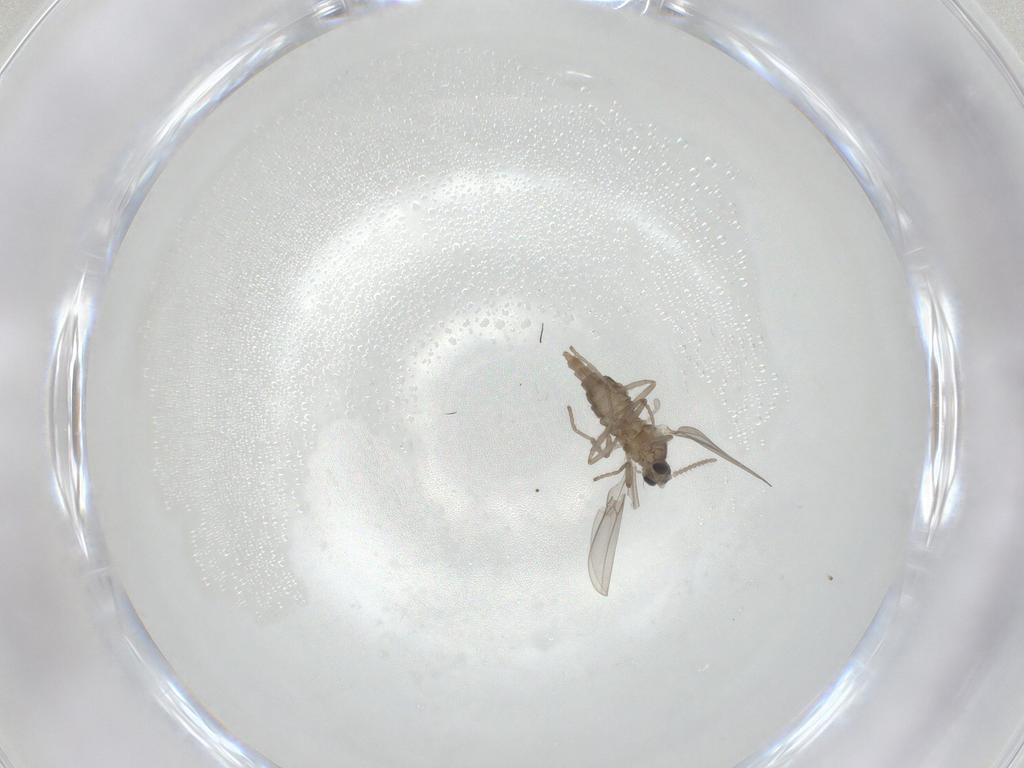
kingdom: Animalia
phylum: Arthropoda
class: Insecta
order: Diptera
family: Cecidomyiidae
